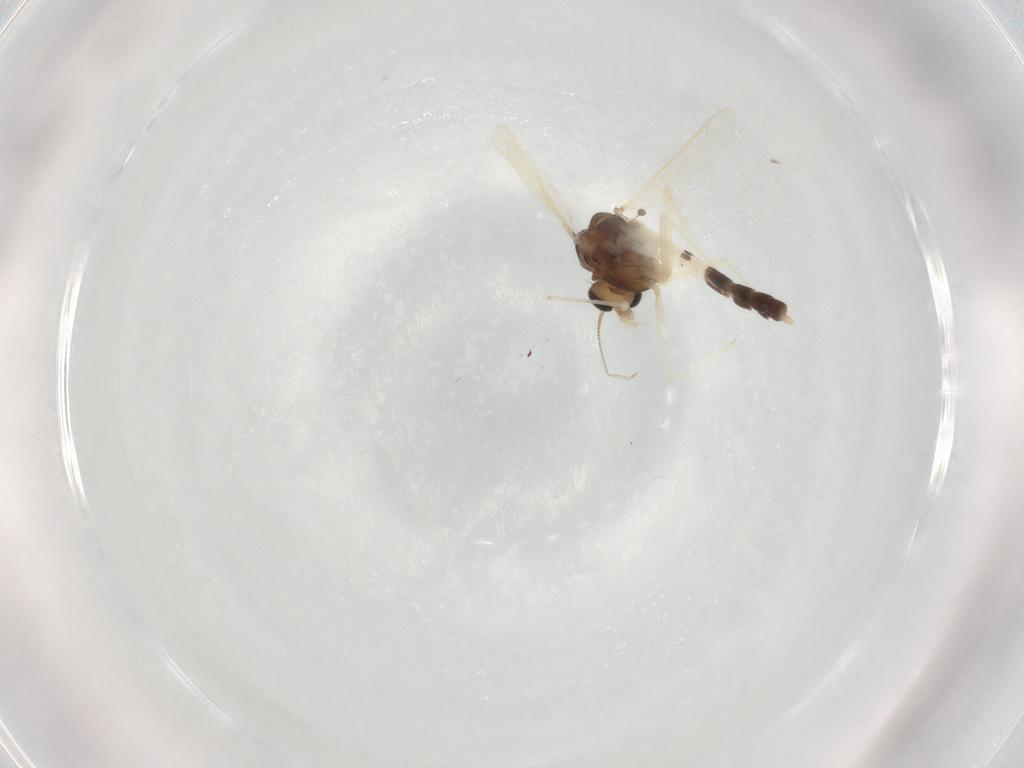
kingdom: Animalia
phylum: Arthropoda
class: Insecta
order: Diptera
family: Chironomidae
